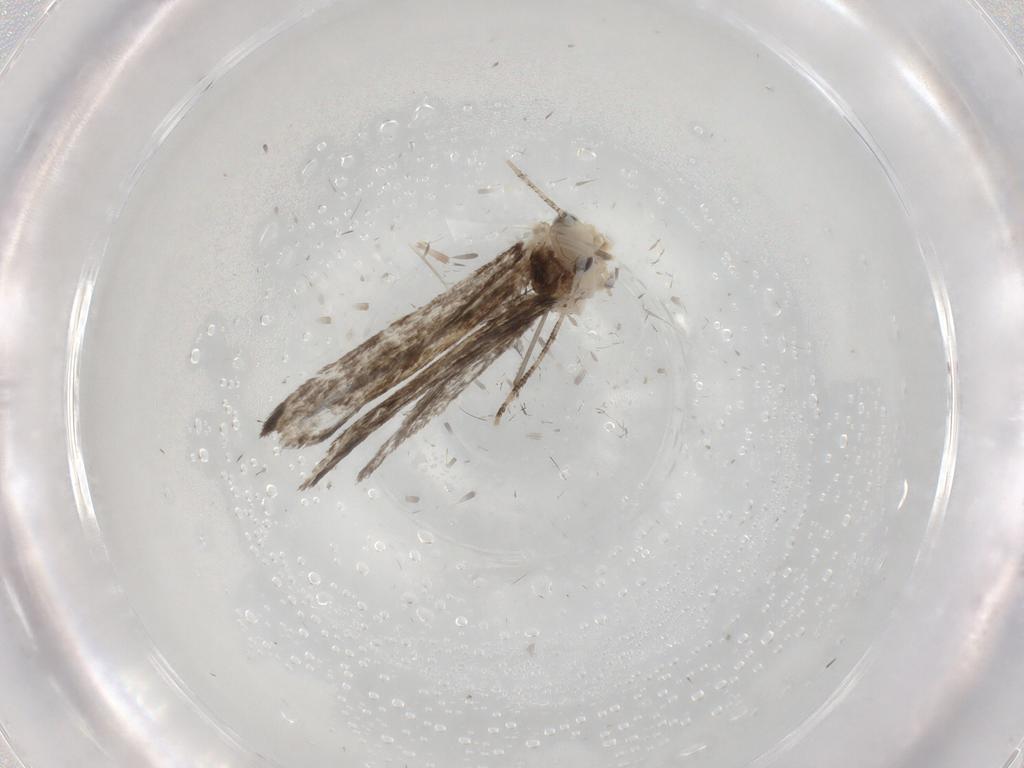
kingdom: Animalia
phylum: Arthropoda
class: Insecta
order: Lepidoptera
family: Tineidae
